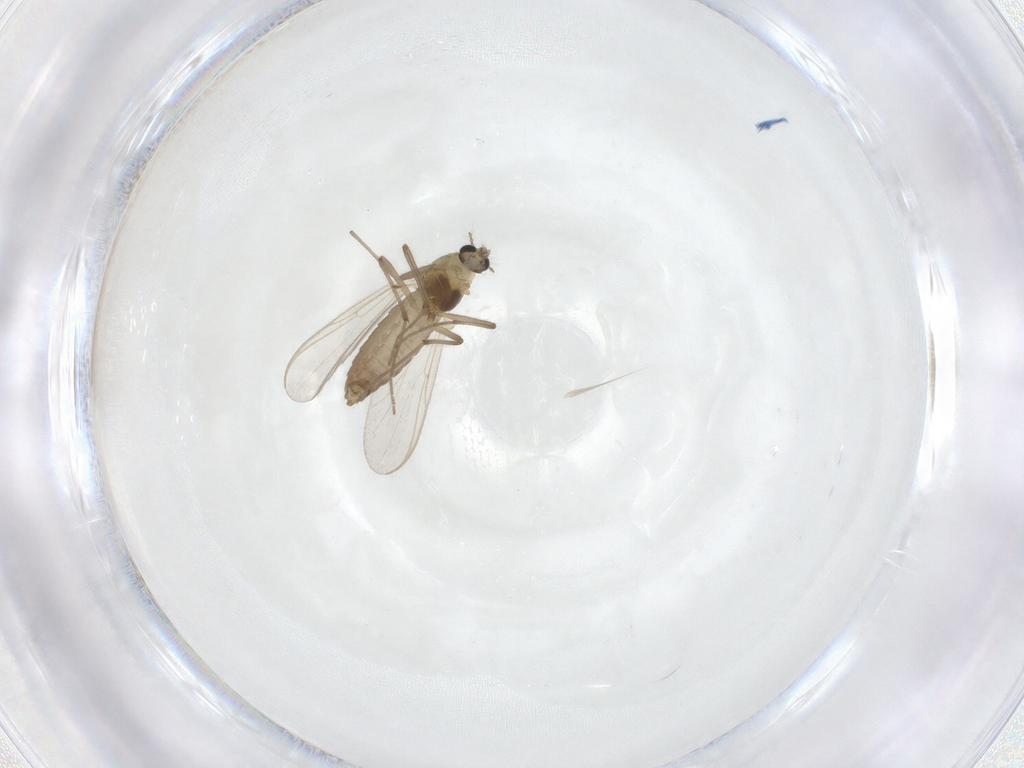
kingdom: Animalia
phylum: Arthropoda
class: Insecta
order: Diptera
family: Chironomidae
